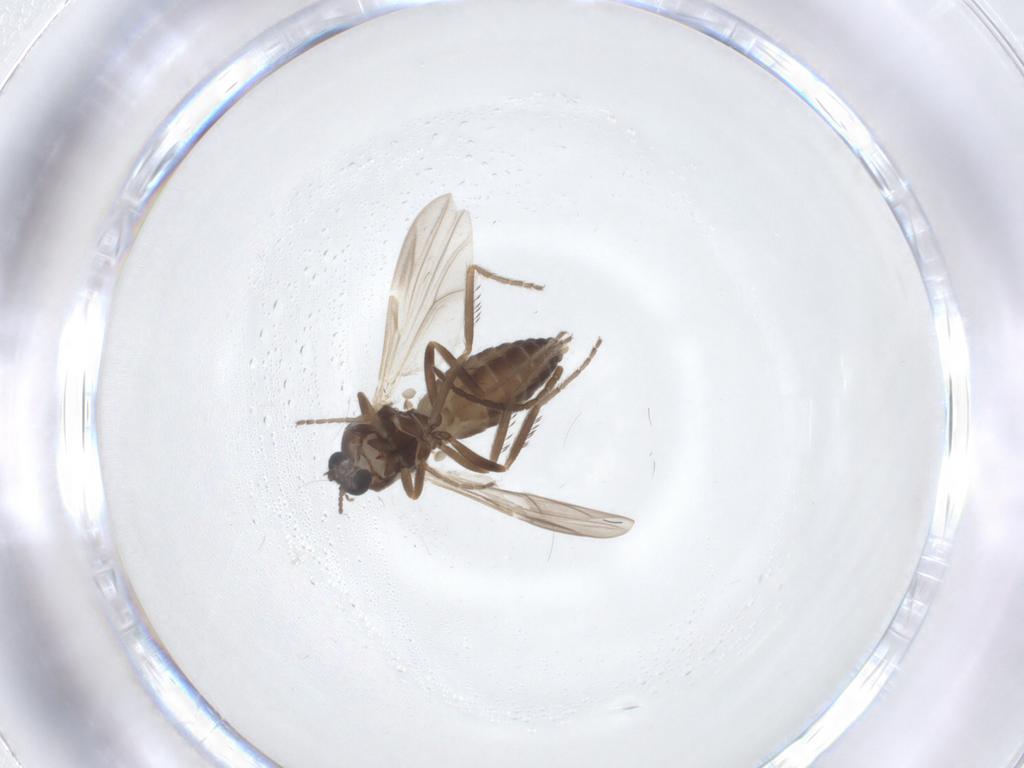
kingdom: Animalia
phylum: Arthropoda
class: Insecta
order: Diptera
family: Ceratopogonidae
